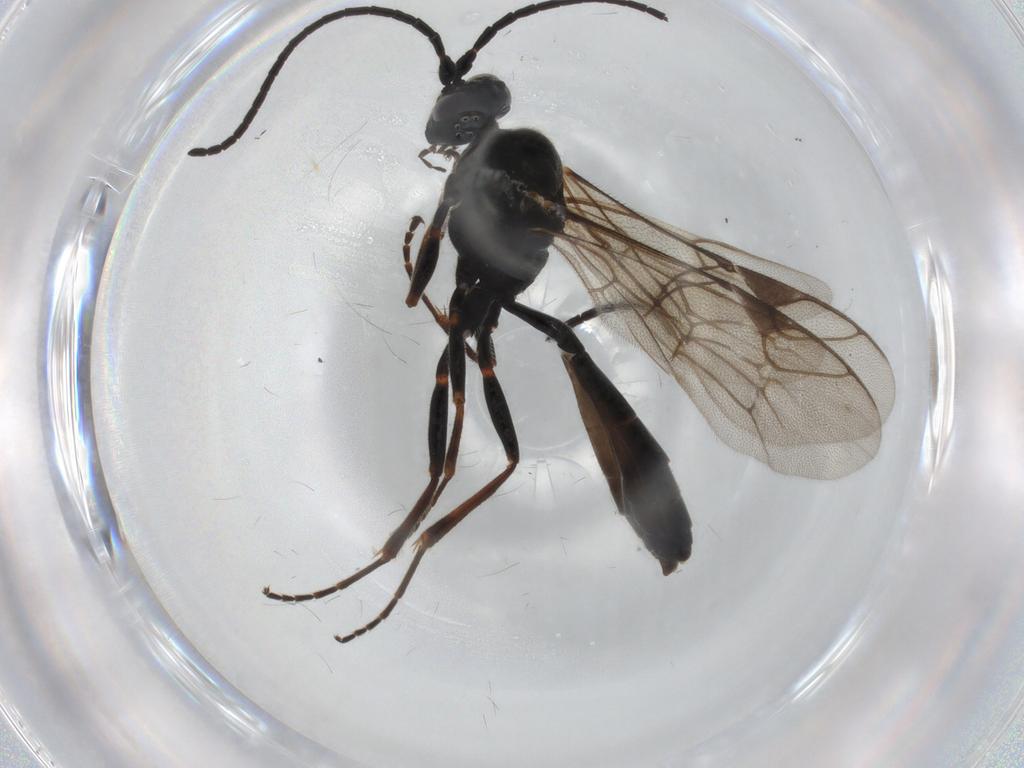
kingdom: Animalia
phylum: Arthropoda
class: Insecta
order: Hymenoptera
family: Ichneumonidae
